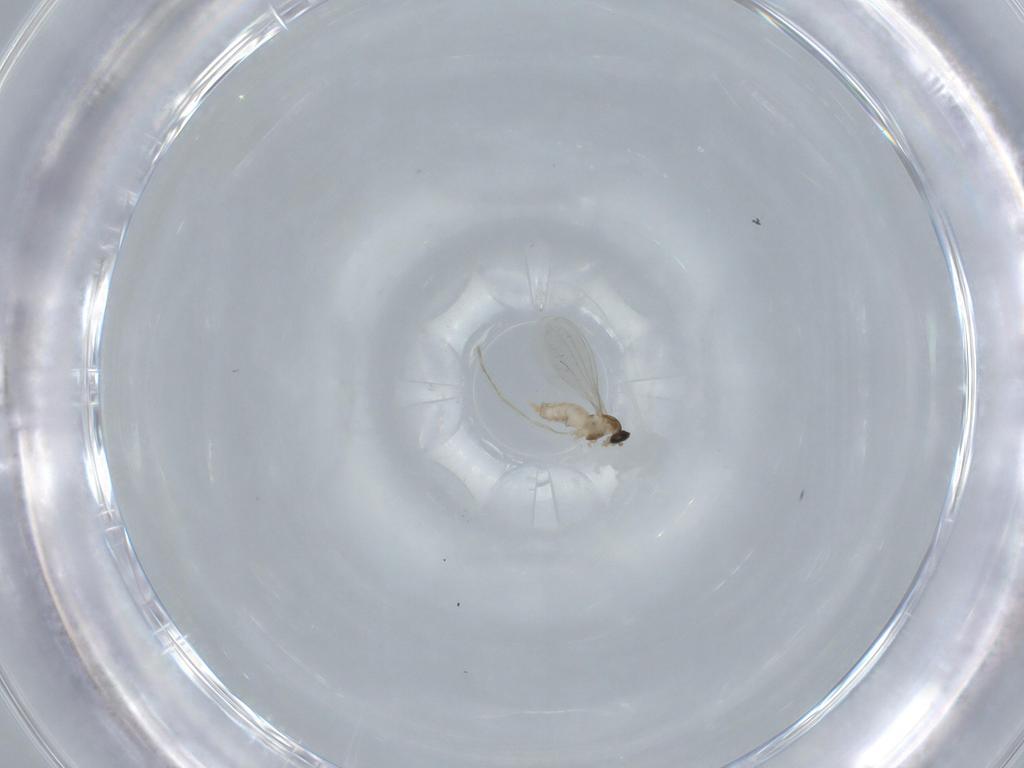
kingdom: Animalia
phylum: Arthropoda
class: Insecta
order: Diptera
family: Cecidomyiidae
